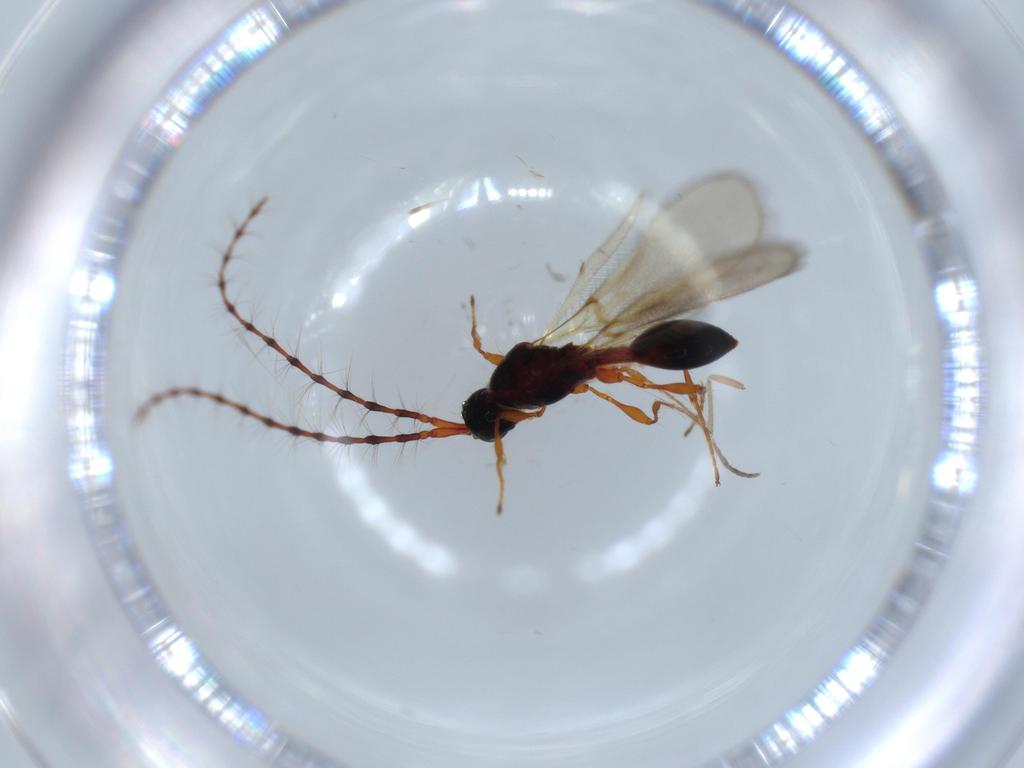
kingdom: Animalia
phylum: Arthropoda
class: Insecta
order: Hymenoptera
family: Diapriidae
